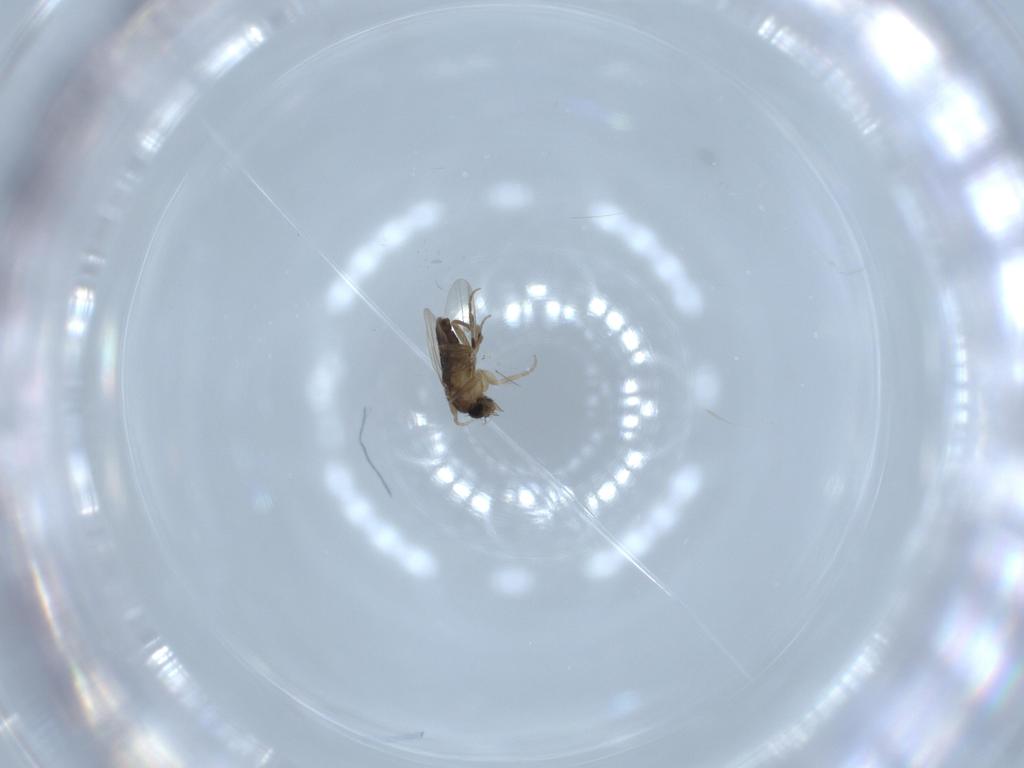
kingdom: Animalia
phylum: Arthropoda
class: Insecta
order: Diptera
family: Phoridae
